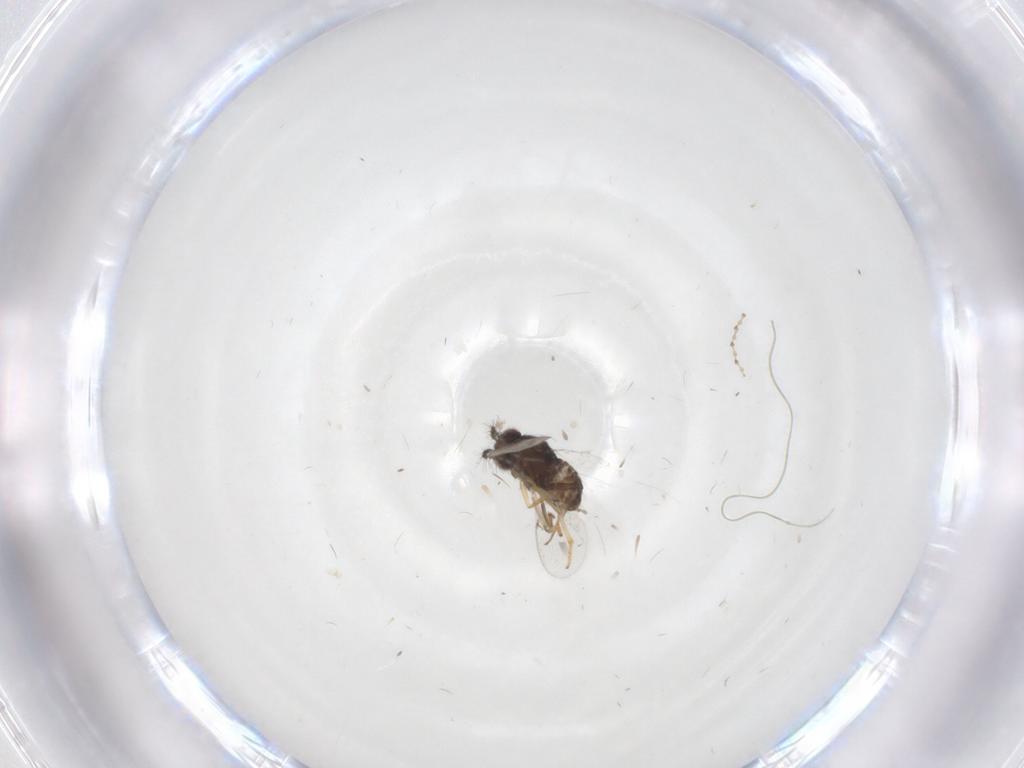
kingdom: Animalia
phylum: Arthropoda
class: Insecta
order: Diptera
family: Cecidomyiidae
